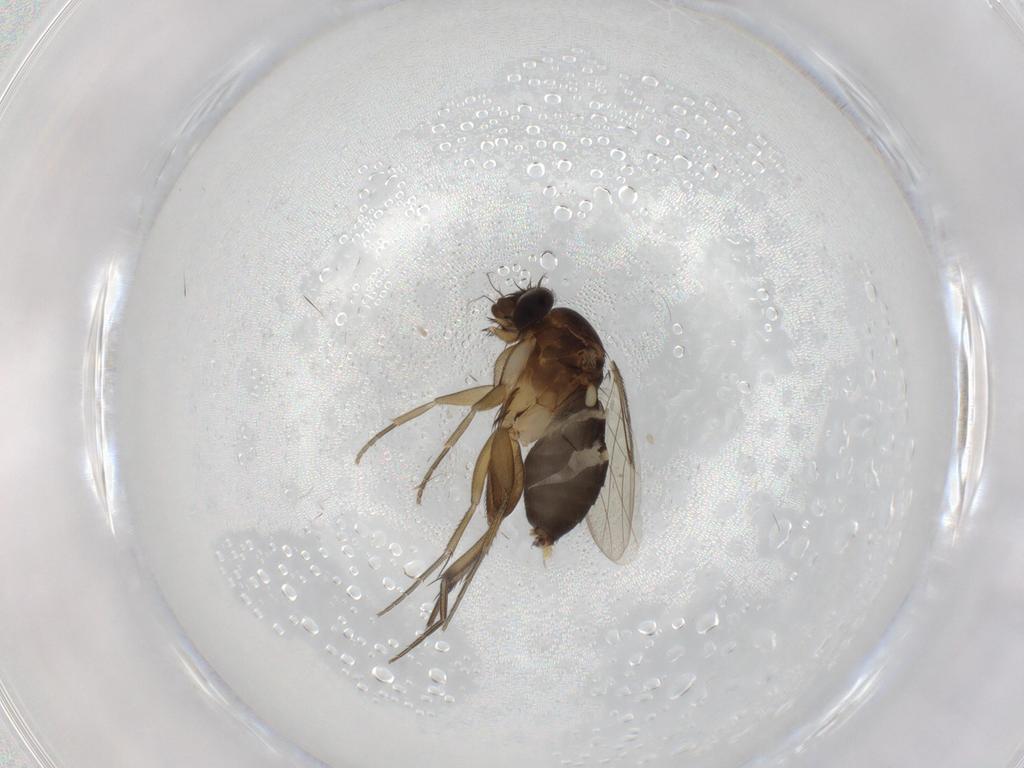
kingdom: Animalia
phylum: Arthropoda
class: Insecta
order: Diptera
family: Phoridae
